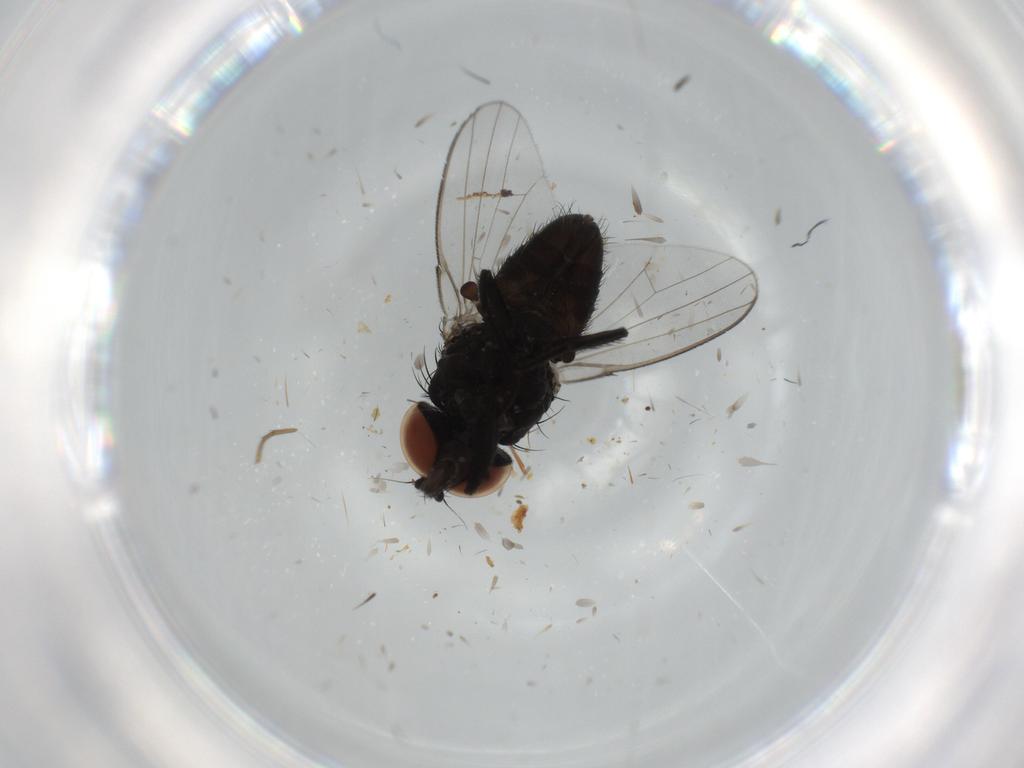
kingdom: Animalia
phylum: Arthropoda
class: Insecta
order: Diptera
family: Milichiidae
